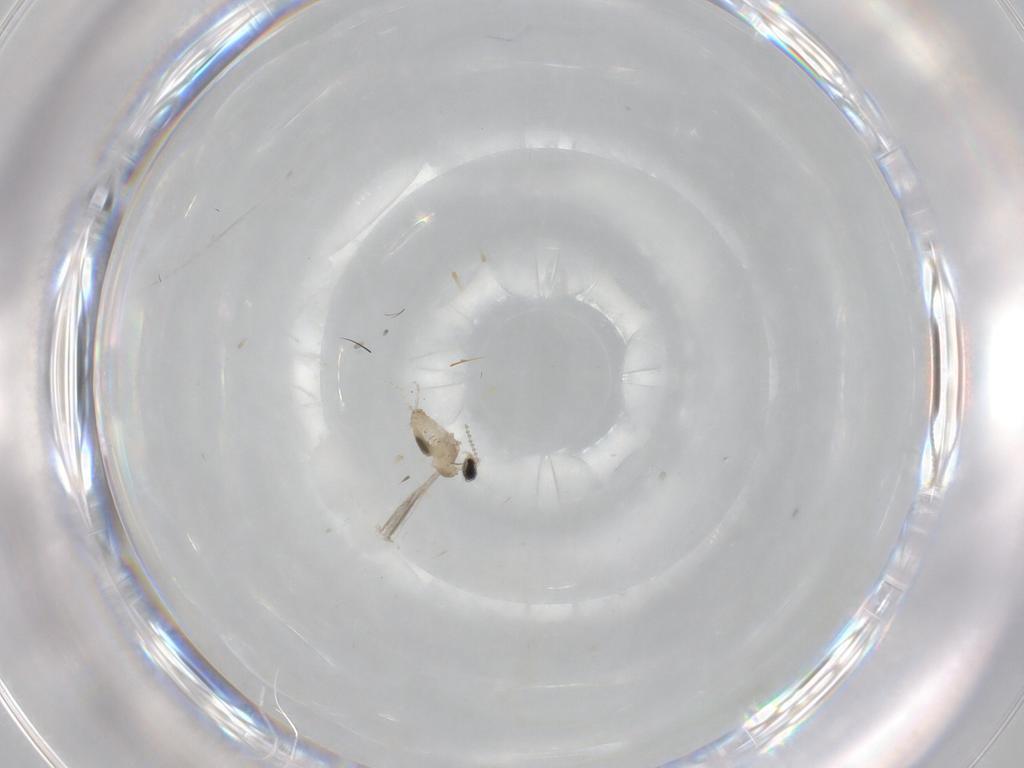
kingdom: Animalia
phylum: Arthropoda
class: Insecta
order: Diptera
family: Cecidomyiidae
